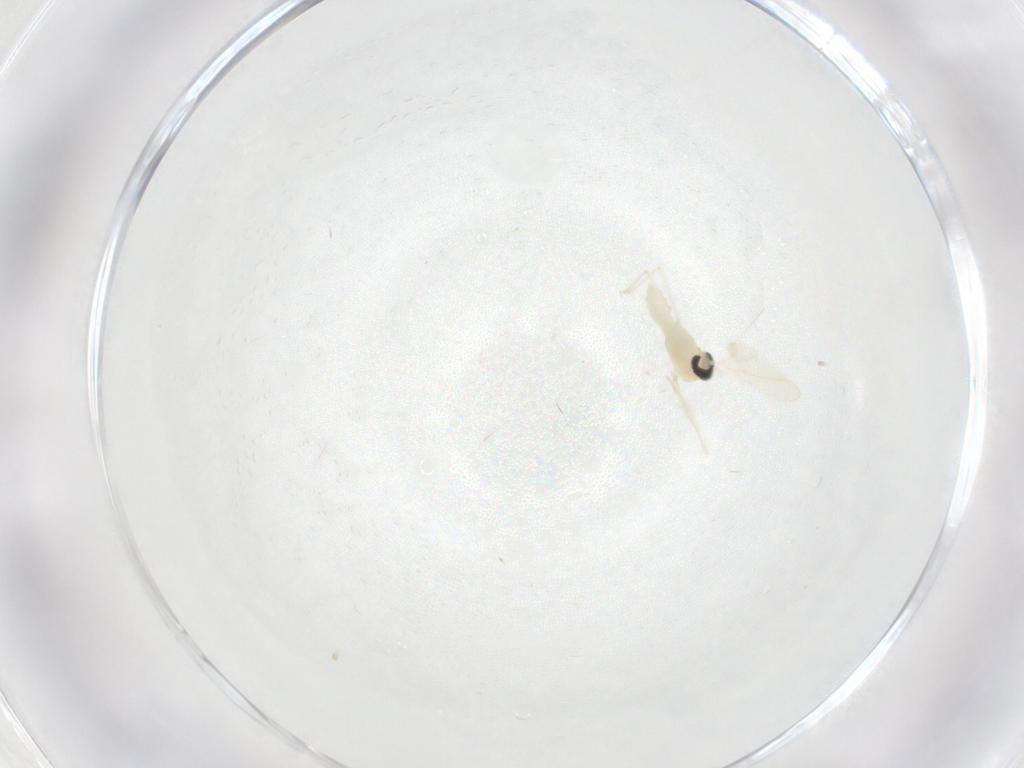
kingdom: Animalia
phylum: Arthropoda
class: Insecta
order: Diptera
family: Cecidomyiidae
